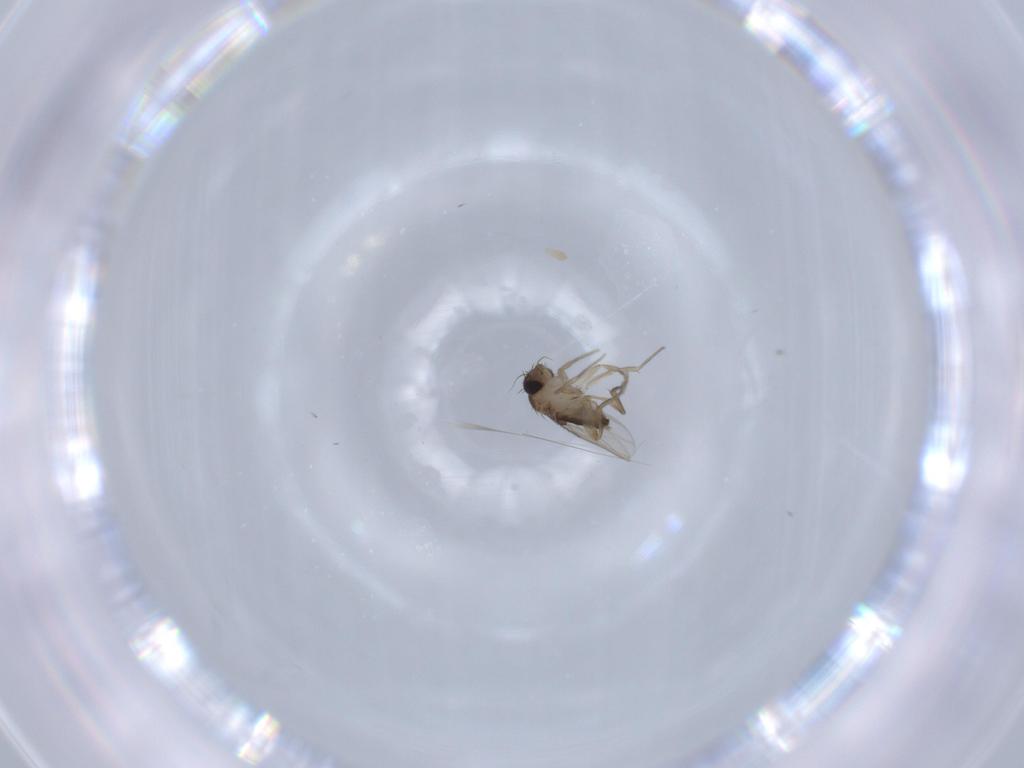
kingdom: Animalia
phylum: Arthropoda
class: Insecta
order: Diptera
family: Phoridae
